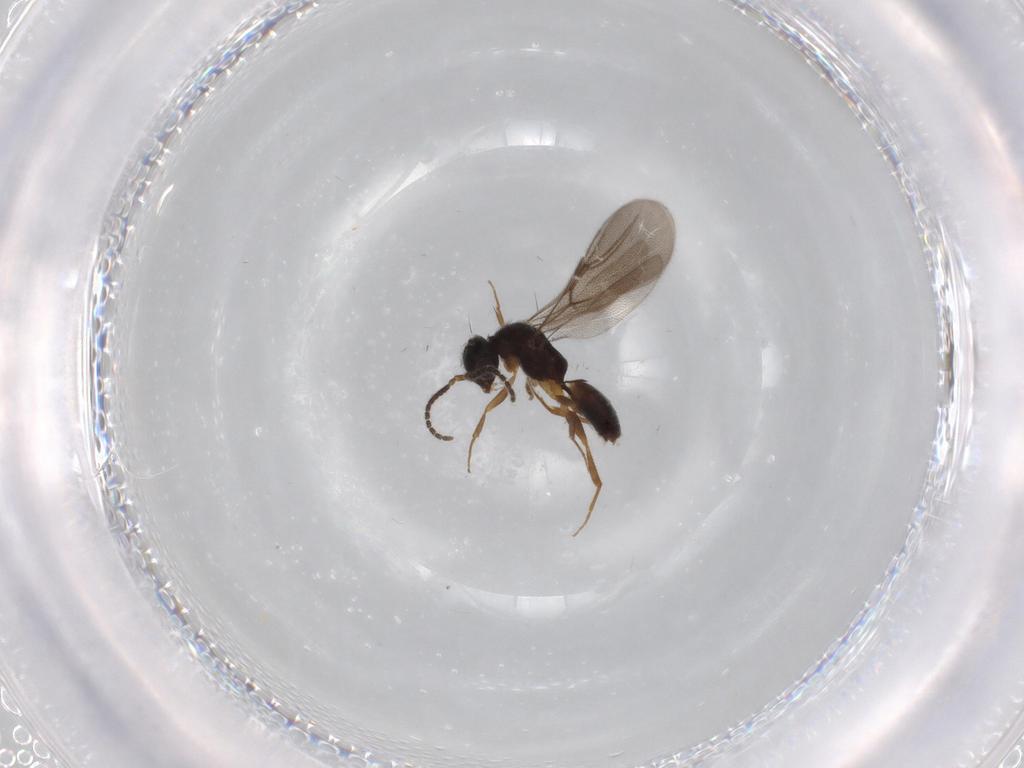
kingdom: Animalia
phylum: Arthropoda
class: Insecta
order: Hymenoptera
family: Bethylidae
